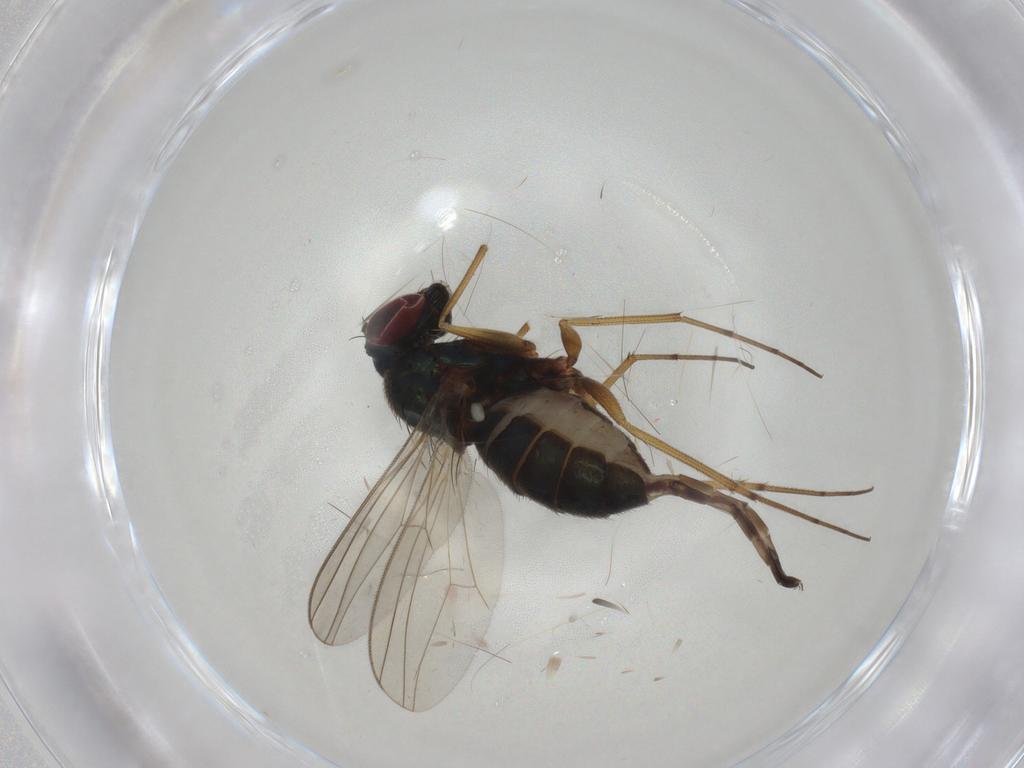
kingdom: Animalia
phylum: Arthropoda
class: Insecta
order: Diptera
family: Dolichopodidae
